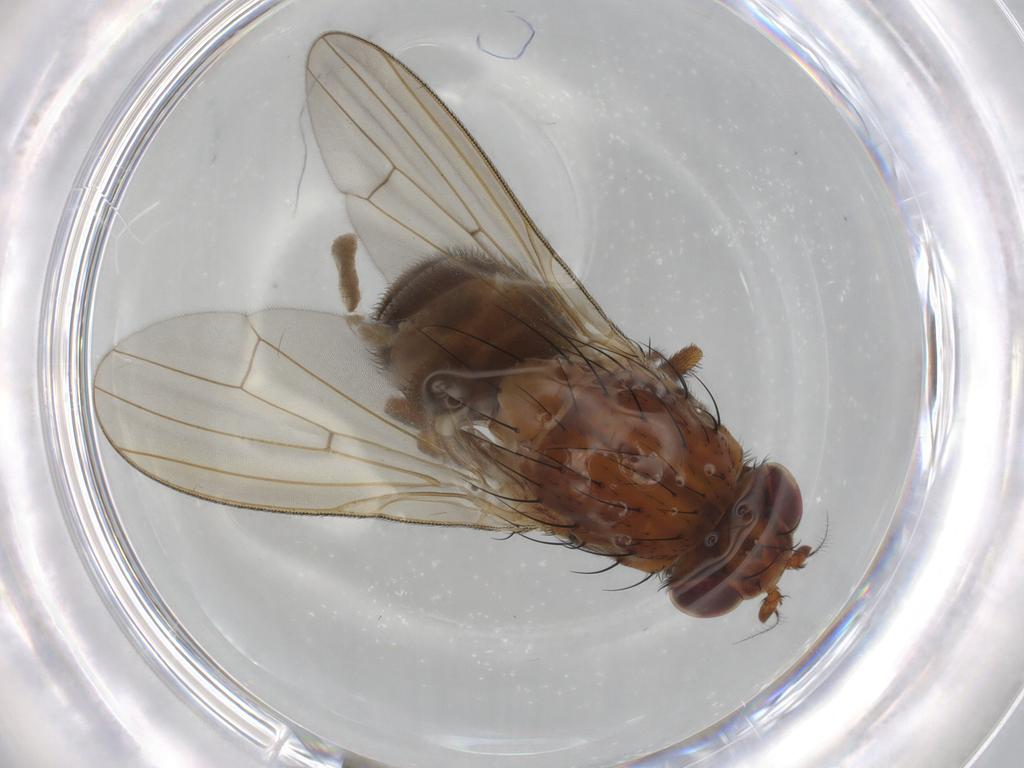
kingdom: Animalia
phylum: Arthropoda
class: Insecta
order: Diptera
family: Lauxaniidae
